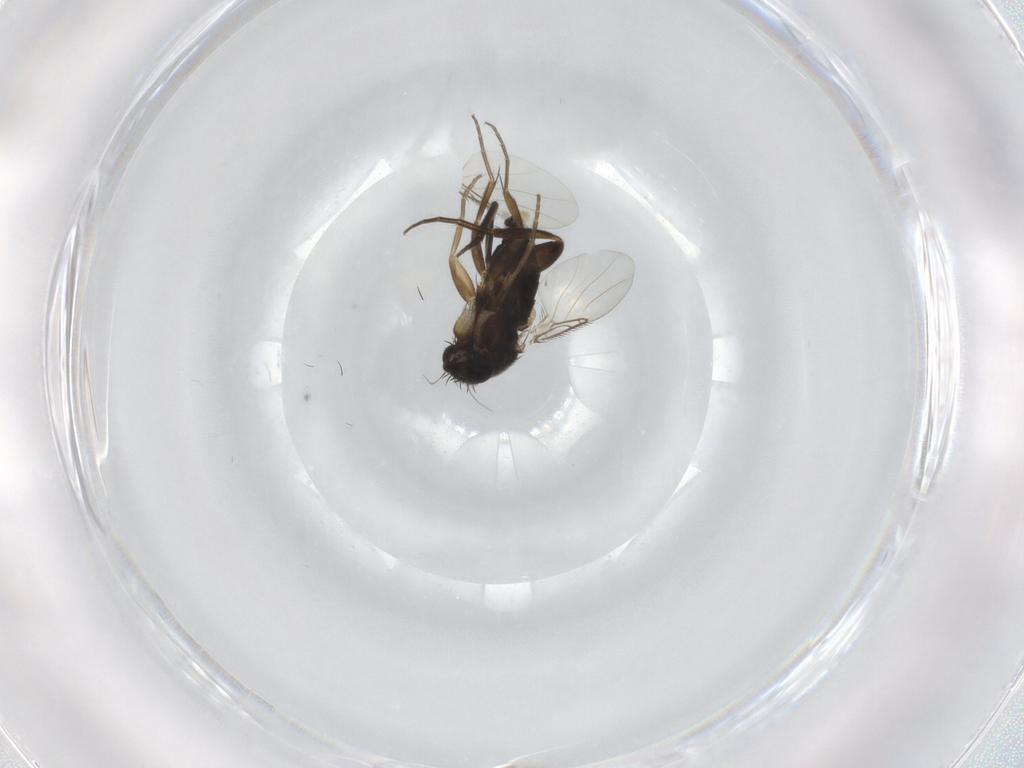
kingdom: Animalia
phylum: Arthropoda
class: Insecta
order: Diptera
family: Phoridae
